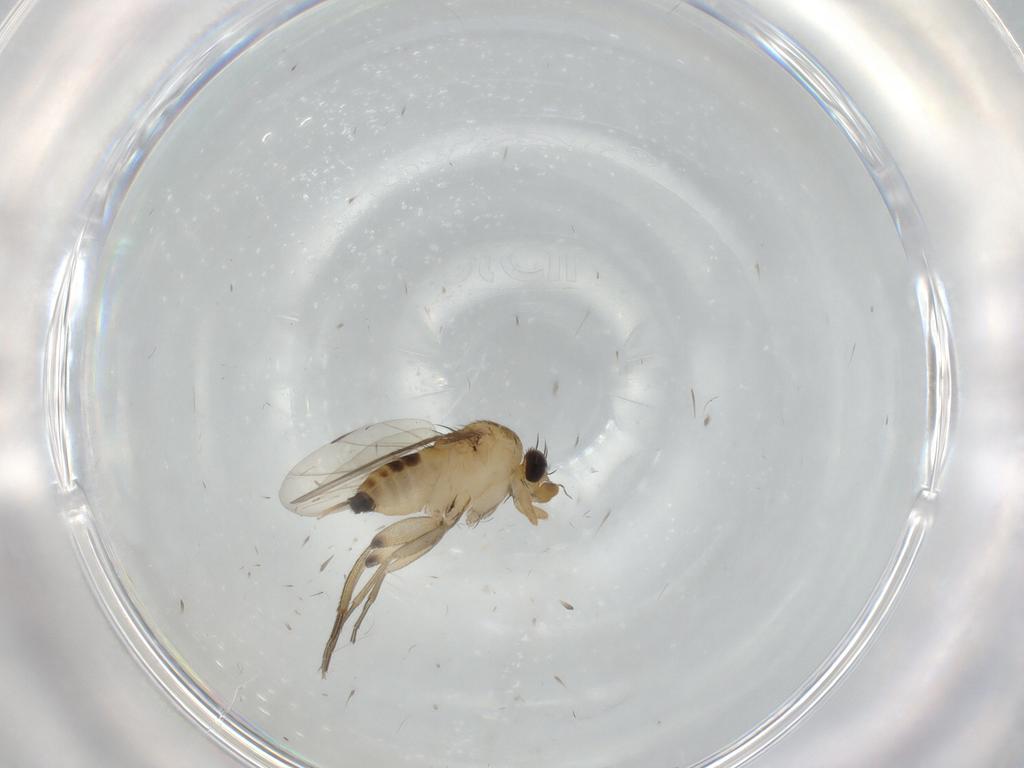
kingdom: Animalia
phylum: Arthropoda
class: Insecta
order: Diptera
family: Phoridae
